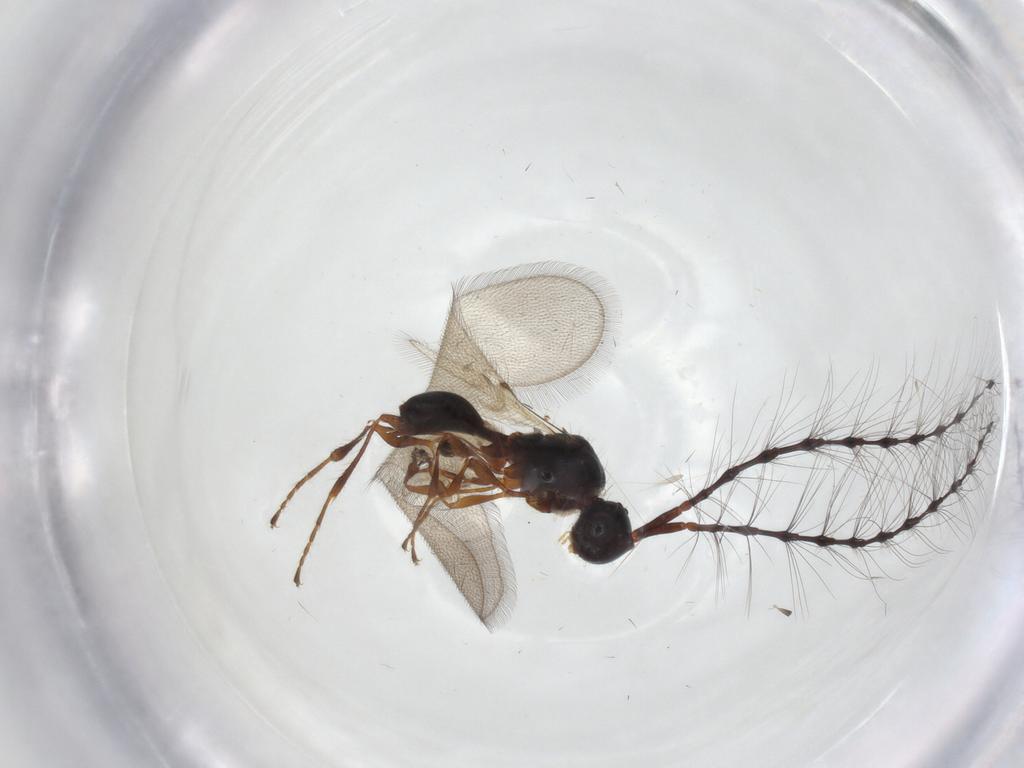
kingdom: Animalia
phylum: Arthropoda
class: Insecta
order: Hymenoptera
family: Diapriidae
